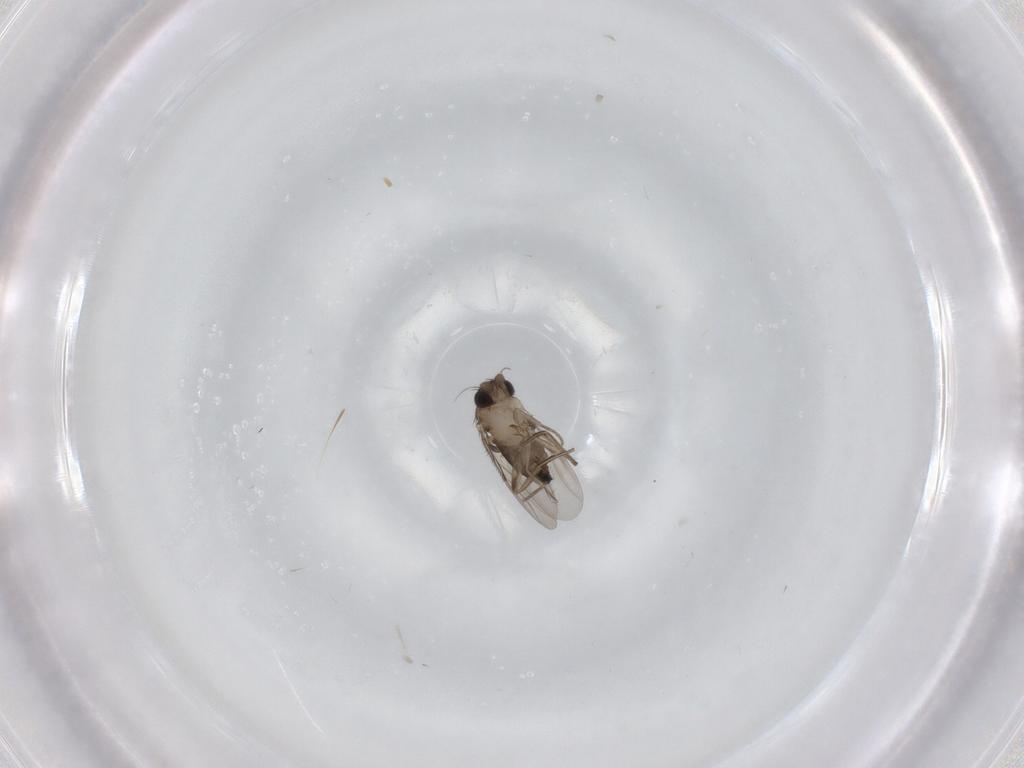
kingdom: Animalia
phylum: Arthropoda
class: Insecta
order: Diptera
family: Phoridae
